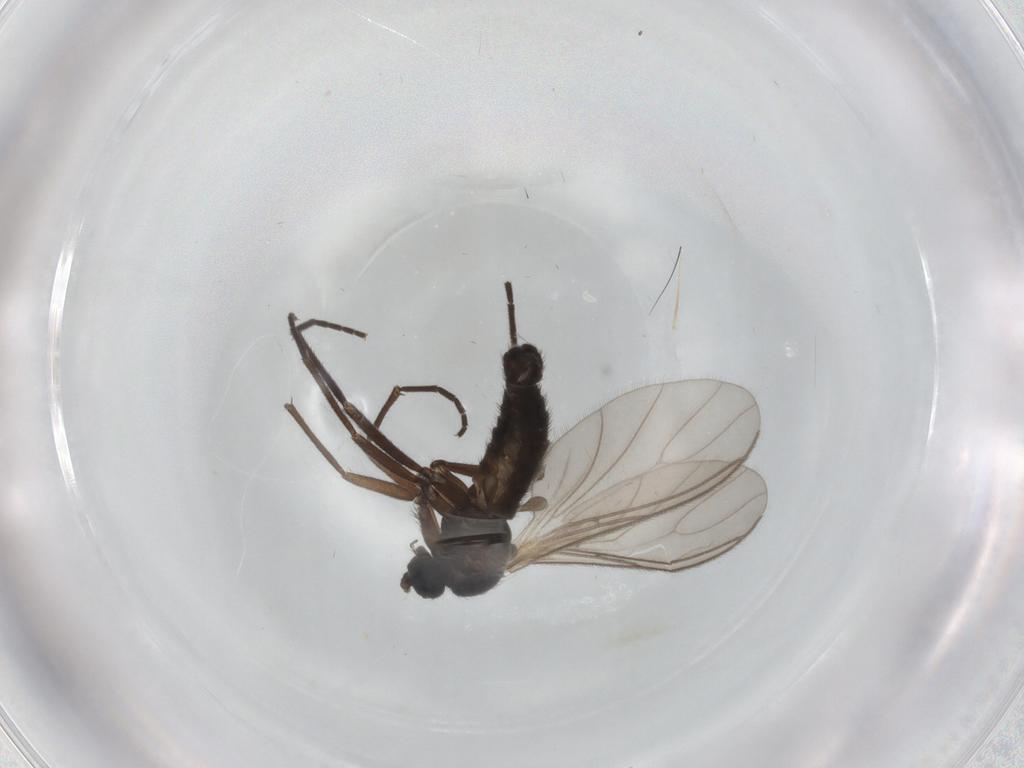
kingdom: Animalia
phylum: Arthropoda
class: Insecta
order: Diptera
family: Sciaridae
